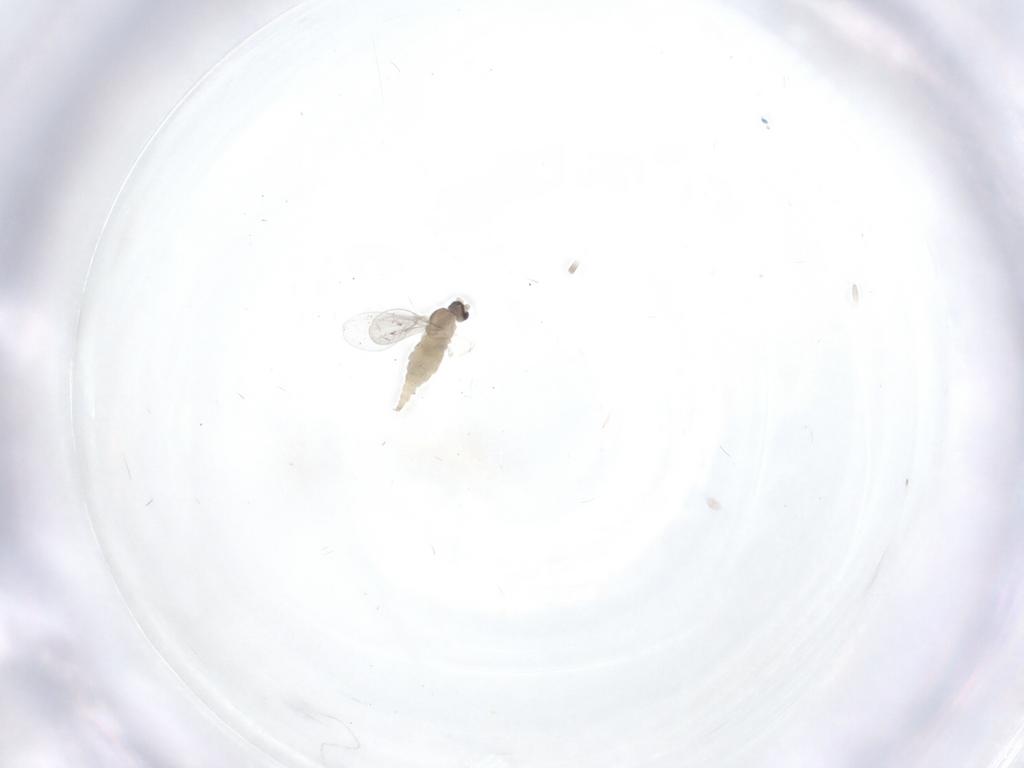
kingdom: Animalia
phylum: Arthropoda
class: Insecta
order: Diptera
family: Cecidomyiidae
